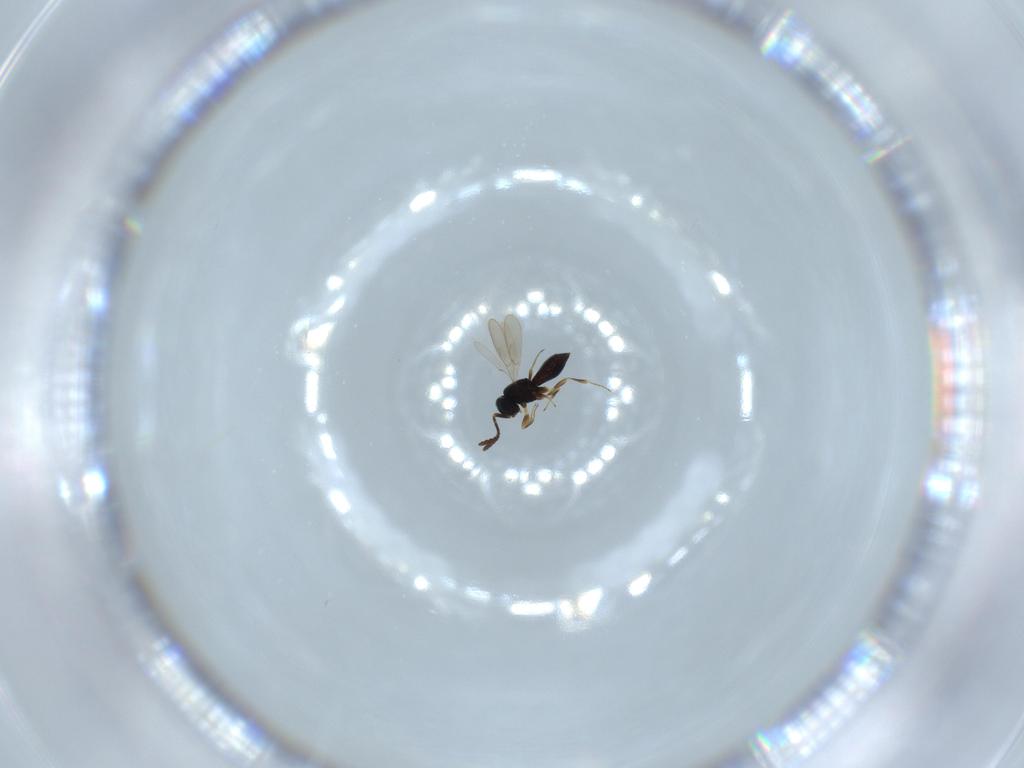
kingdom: Animalia
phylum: Arthropoda
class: Insecta
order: Hymenoptera
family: Scelionidae
